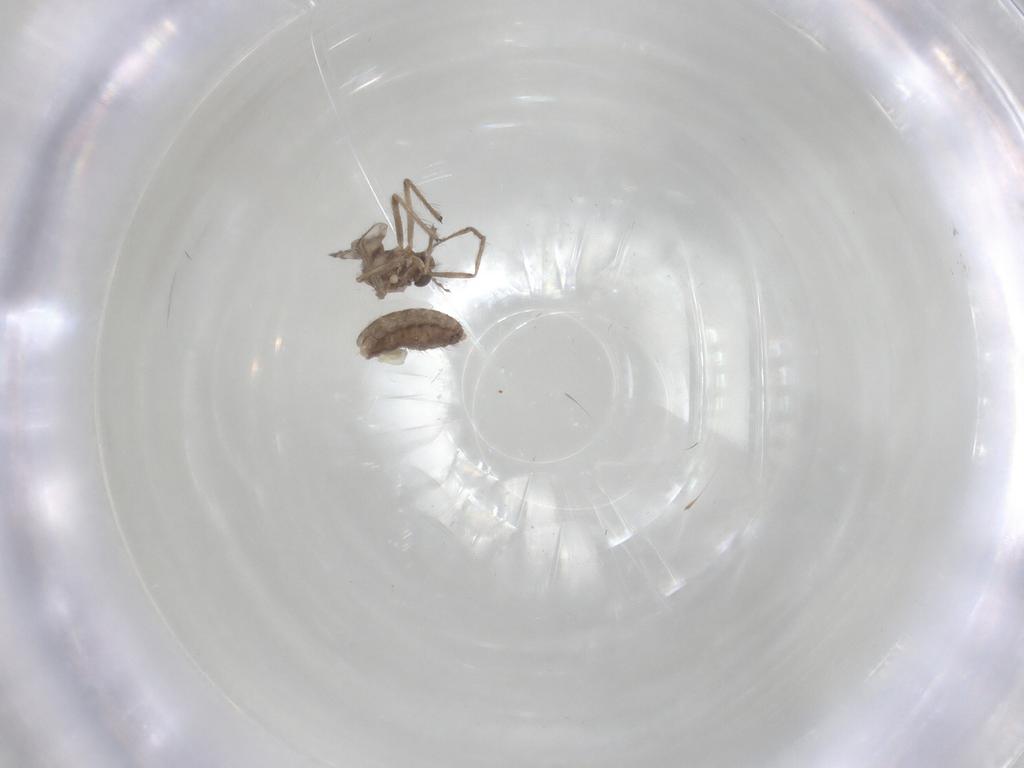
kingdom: Animalia
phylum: Arthropoda
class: Insecta
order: Diptera
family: Chironomidae
